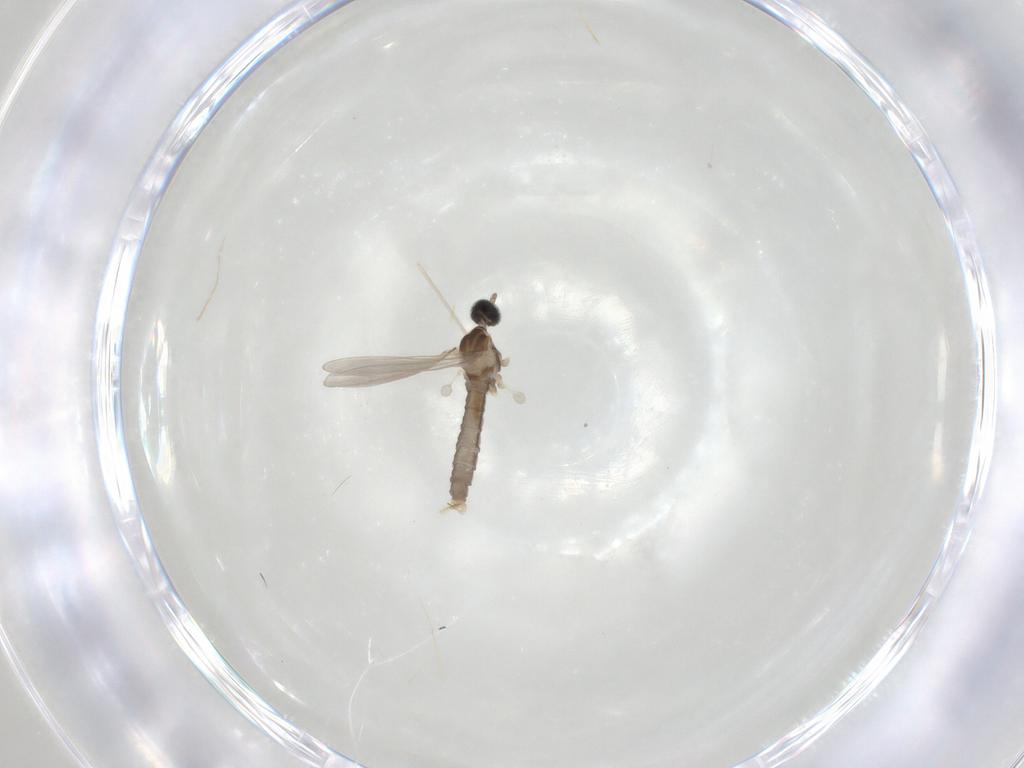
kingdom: Animalia
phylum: Arthropoda
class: Insecta
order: Diptera
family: Cecidomyiidae
